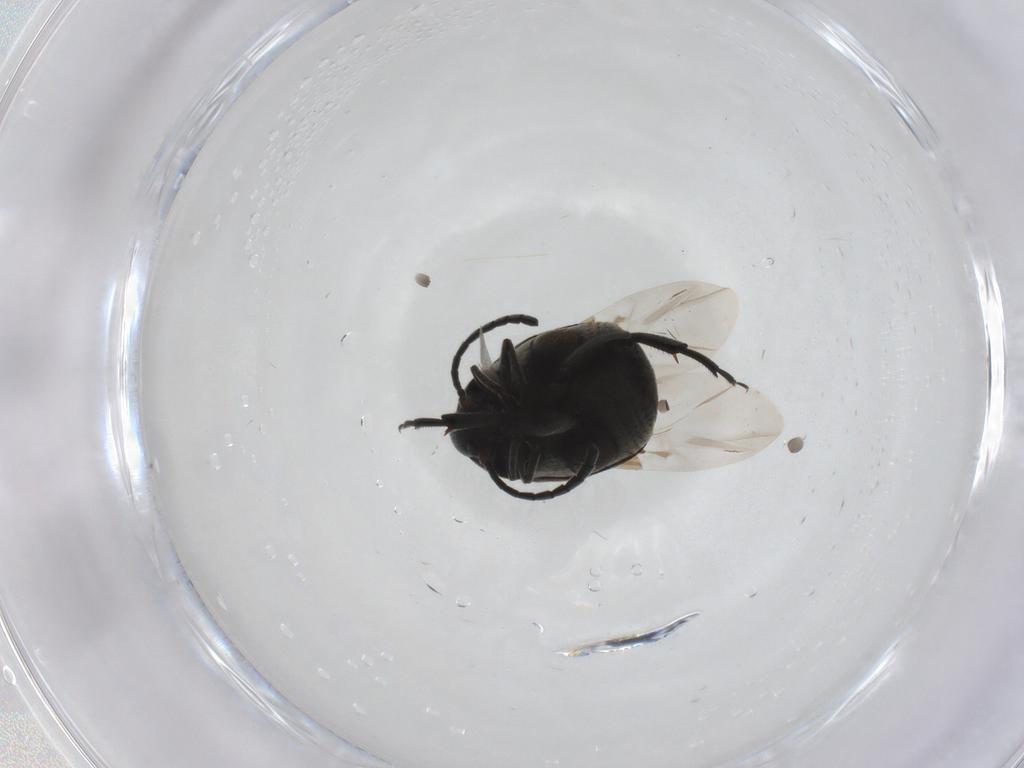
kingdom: Animalia
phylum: Arthropoda
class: Insecta
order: Coleoptera
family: Chrysomelidae
